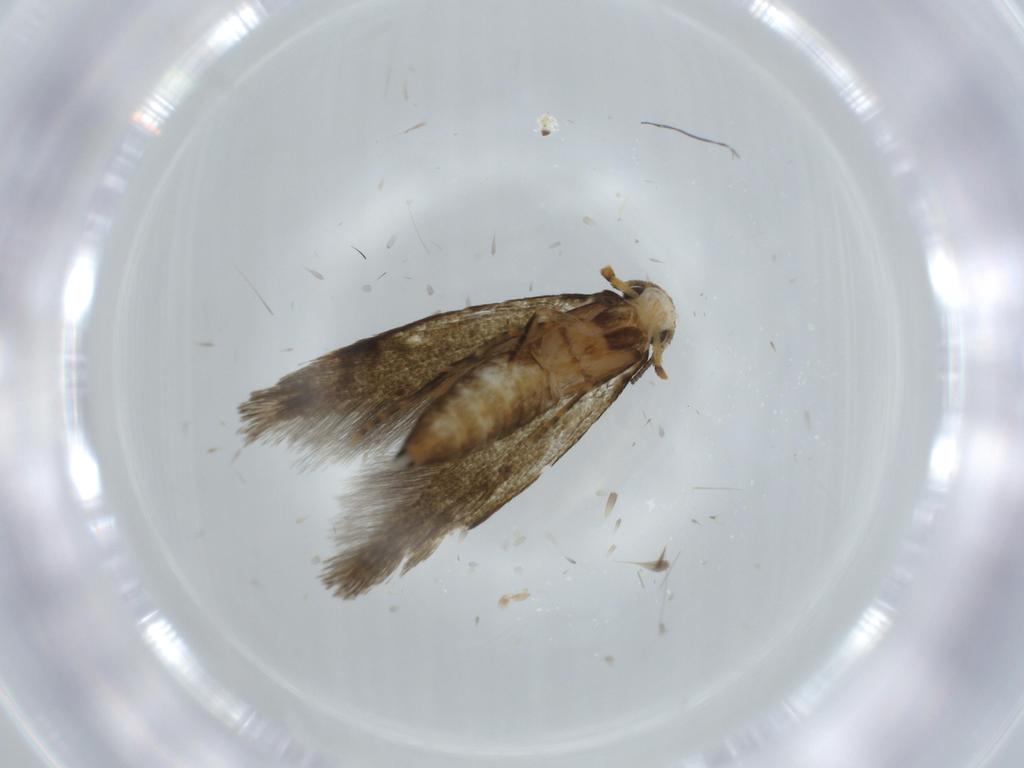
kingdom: Animalia
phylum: Arthropoda
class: Insecta
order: Lepidoptera
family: Tineidae
